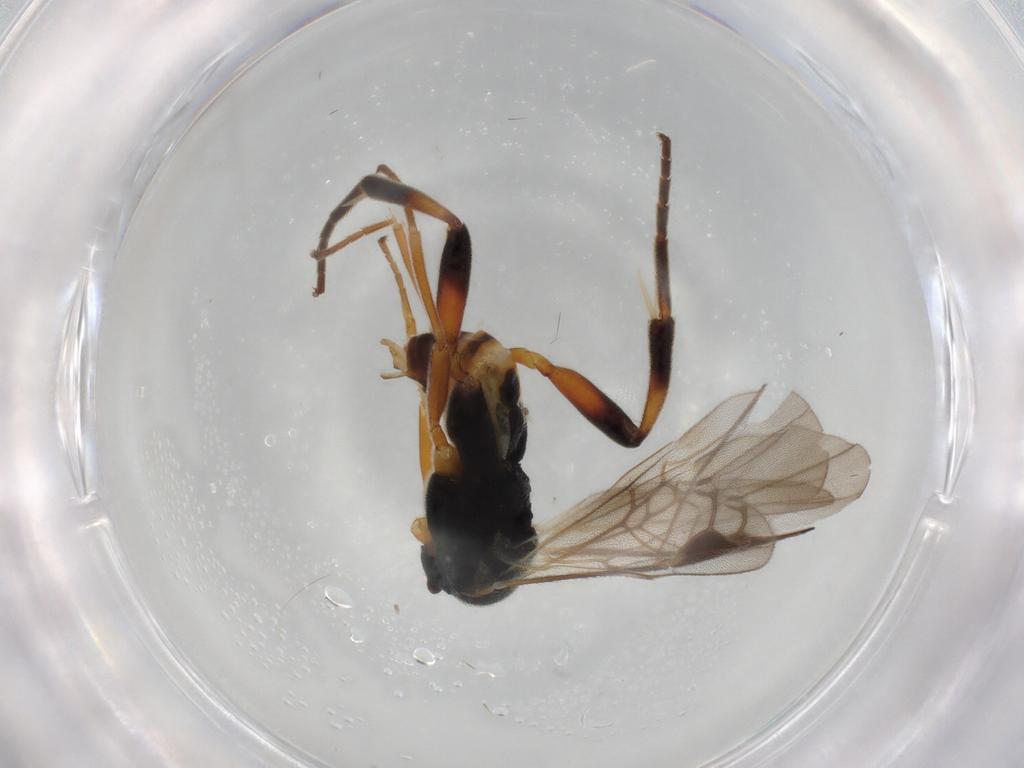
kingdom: Animalia
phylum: Arthropoda
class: Insecta
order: Hymenoptera
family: Braconidae
